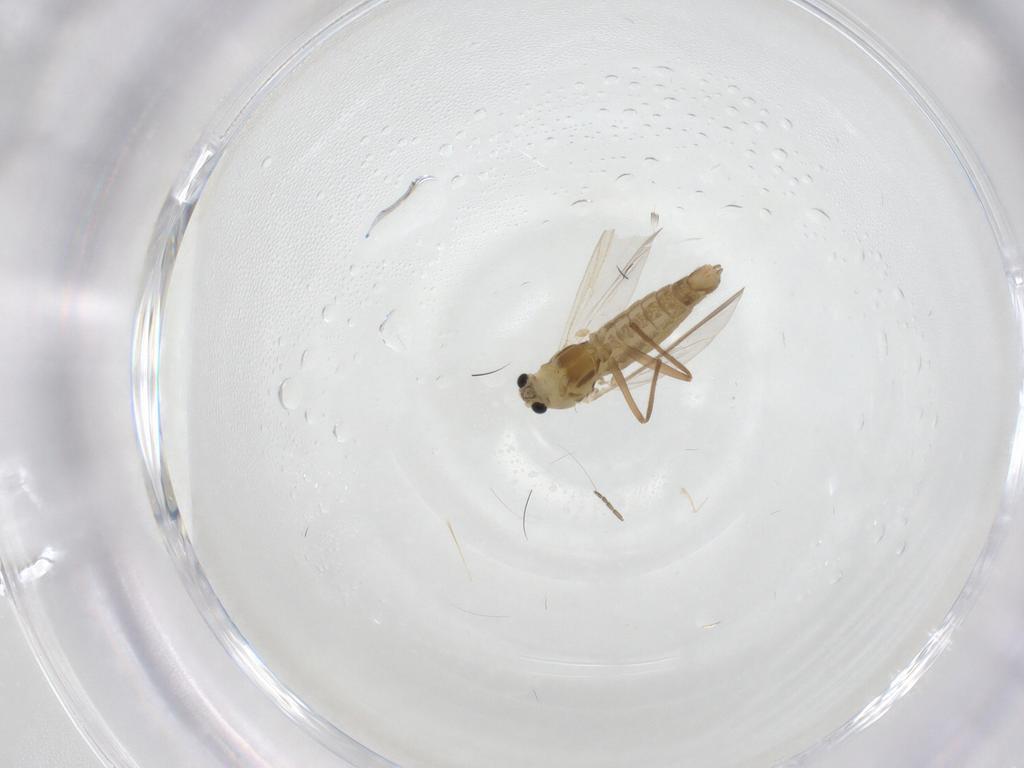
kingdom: Animalia
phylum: Arthropoda
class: Insecta
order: Diptera
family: Chironomidae
